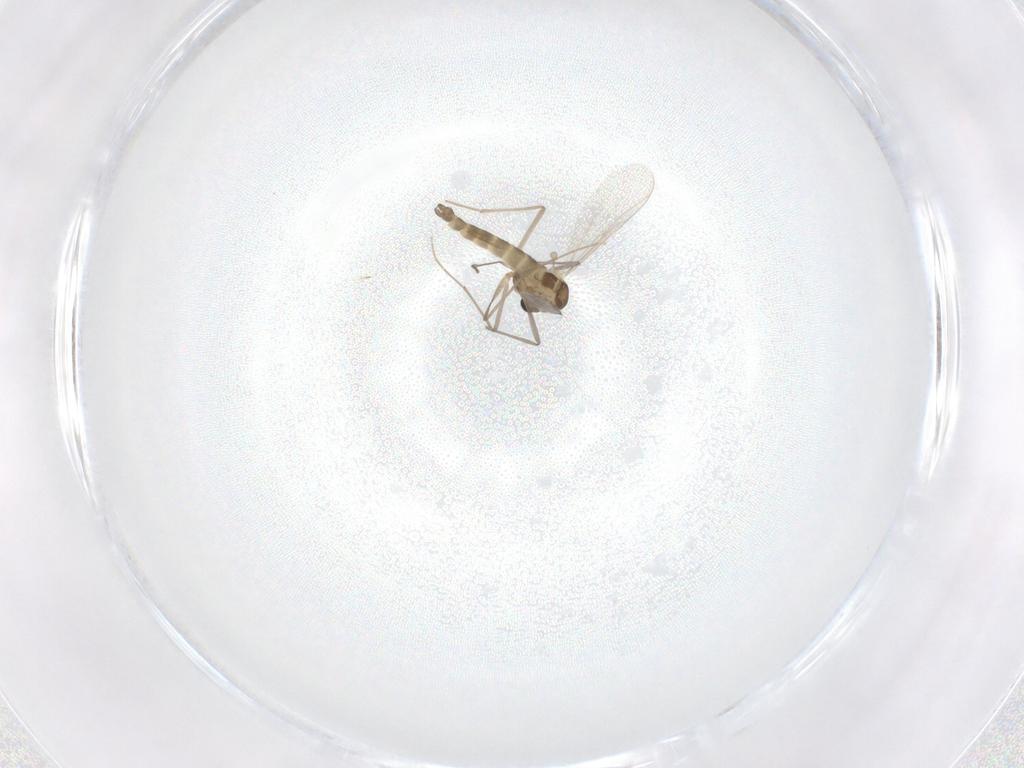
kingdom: Animalia
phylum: Arthropoda
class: Insecta
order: Diptera
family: Chironomidae
